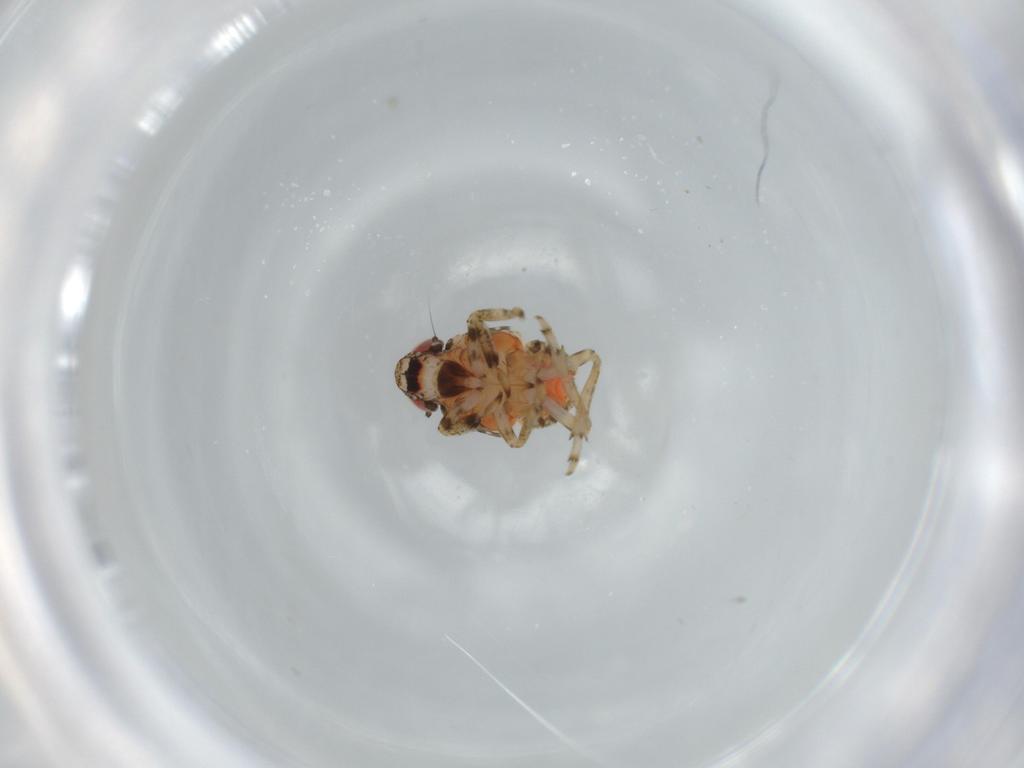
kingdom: Animalia
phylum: Arthropoda
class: Insecta
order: Hemiptera
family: Issidae
